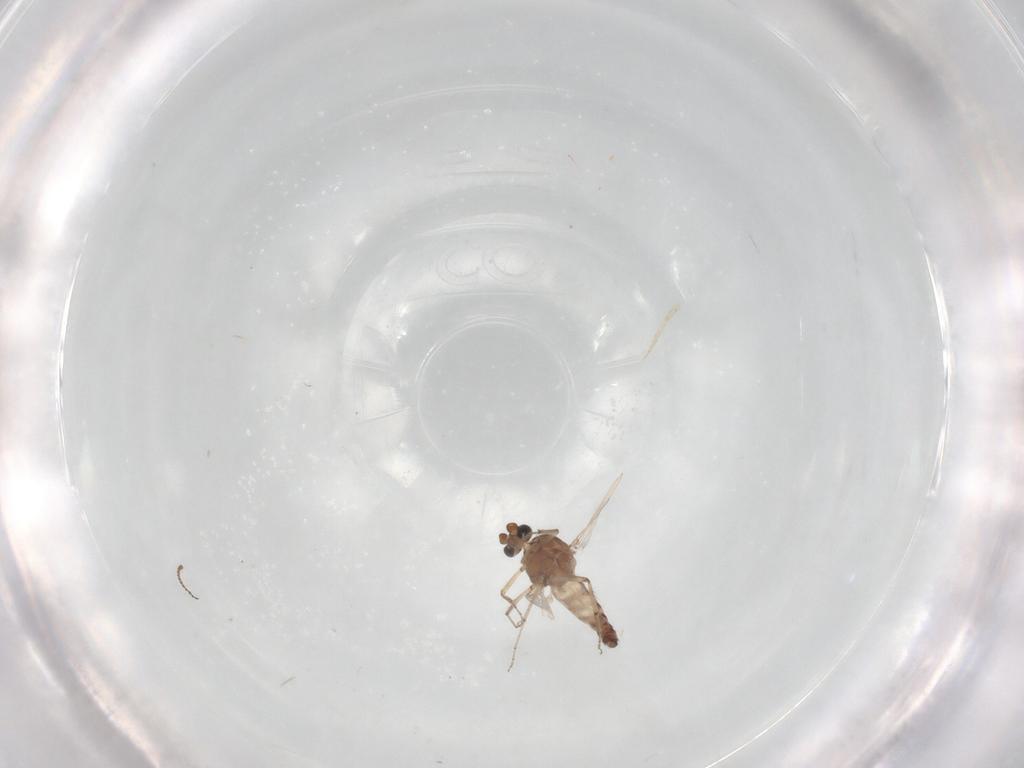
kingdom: Animalia
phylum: Arthropoda
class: Insecta
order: Diptera
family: Ceratopogonidae
